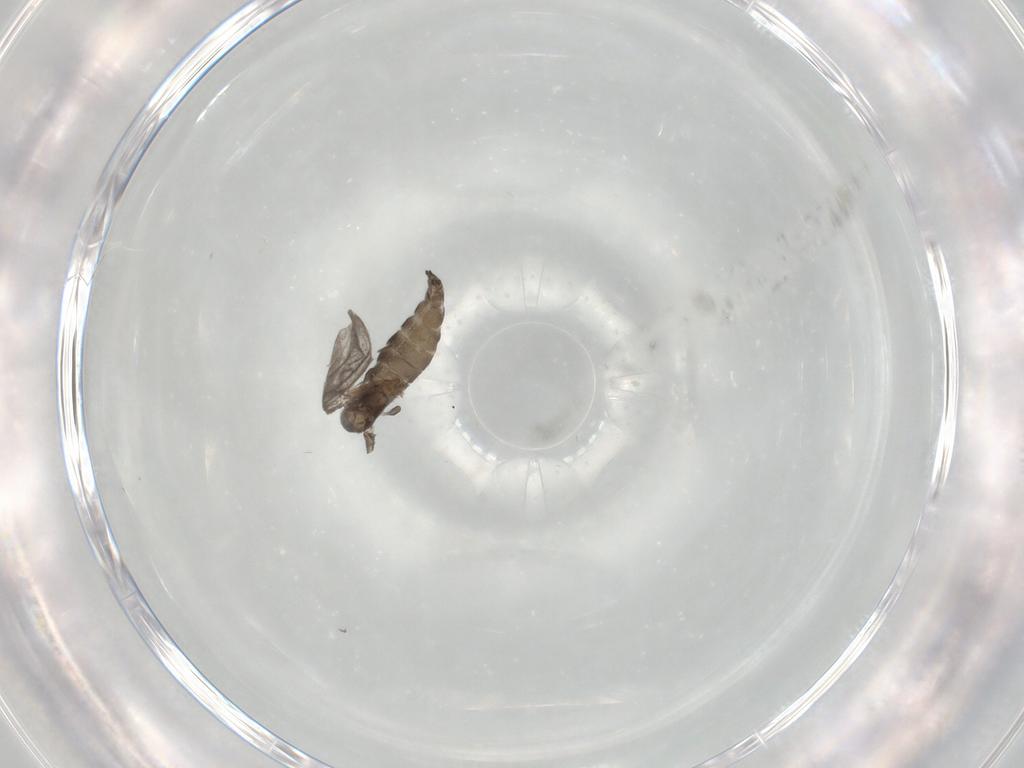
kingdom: Animalia
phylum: Arthropoda
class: Insecta
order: Diptera
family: Sciaridae
